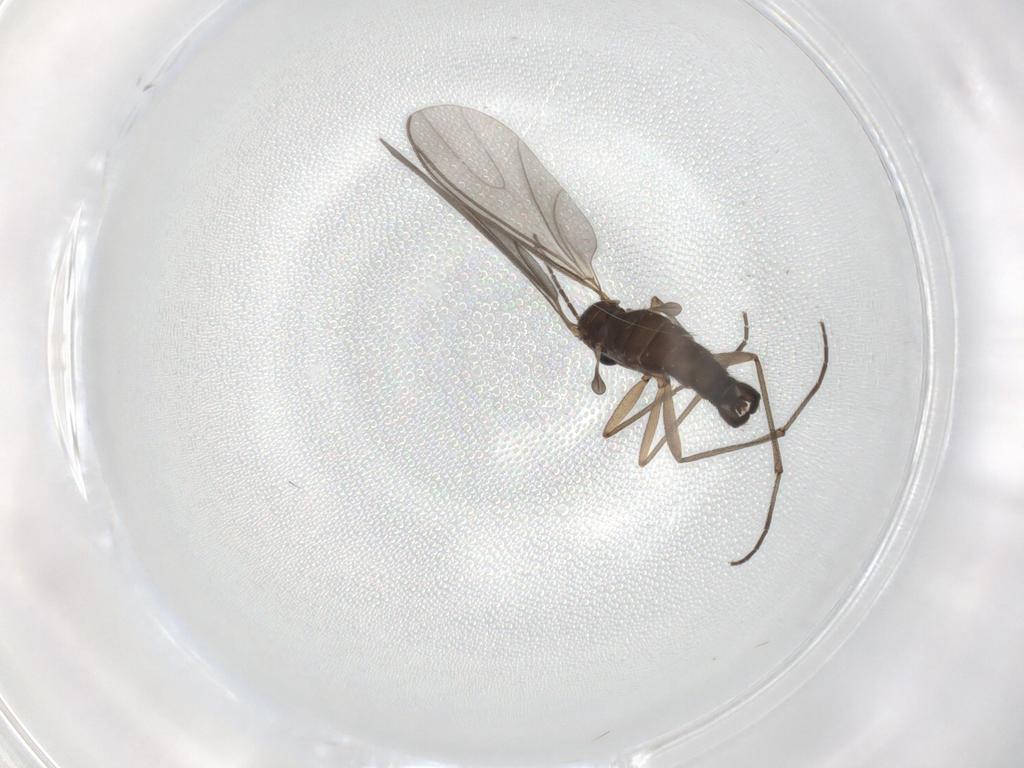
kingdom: Animalia
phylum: Arthropoda
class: Insecta
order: Diptera
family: Sciaridae
